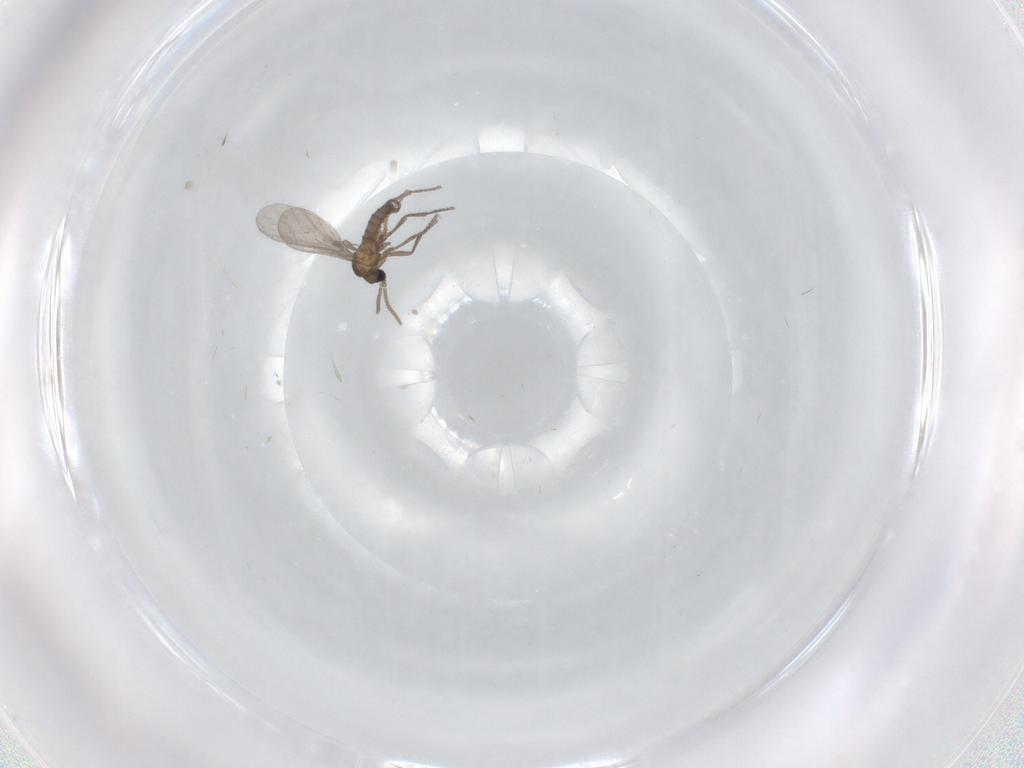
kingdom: Animalia
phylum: Arthropoda
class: Insecta
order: Diptera
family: Sciaridae
